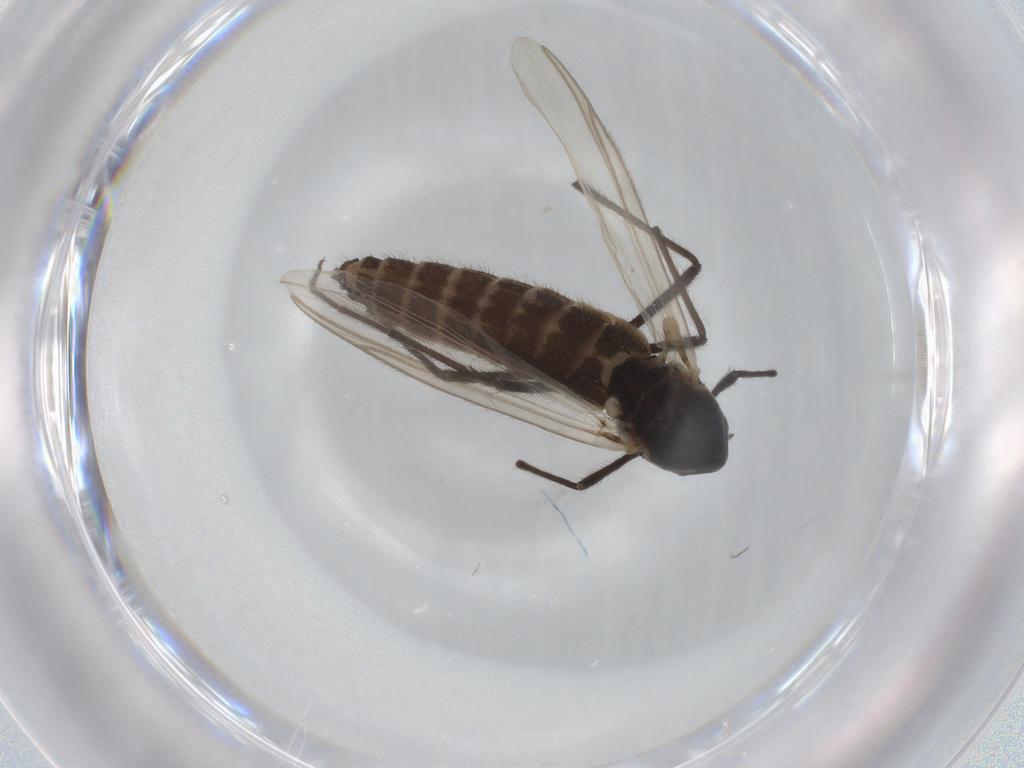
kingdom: Animalia
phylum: Arthropoda
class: Insecta
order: Diptera
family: Chironomidae
